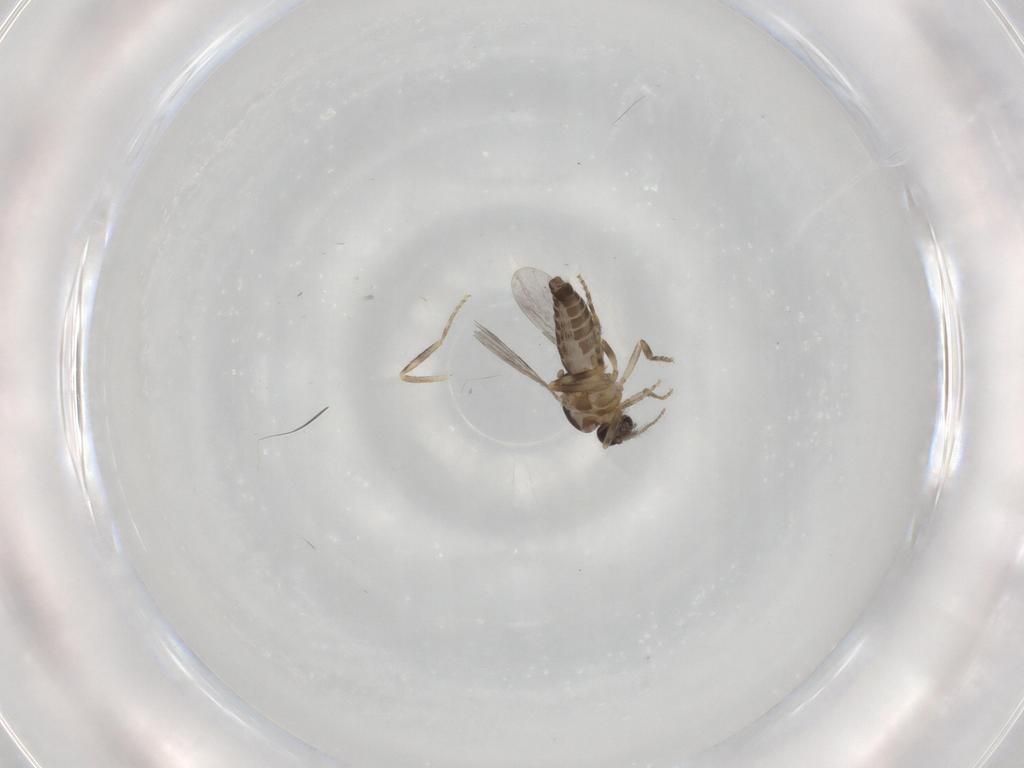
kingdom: Animalia
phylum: Arthropoda
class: Insecta
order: Diptera
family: Ceratopogonidae
